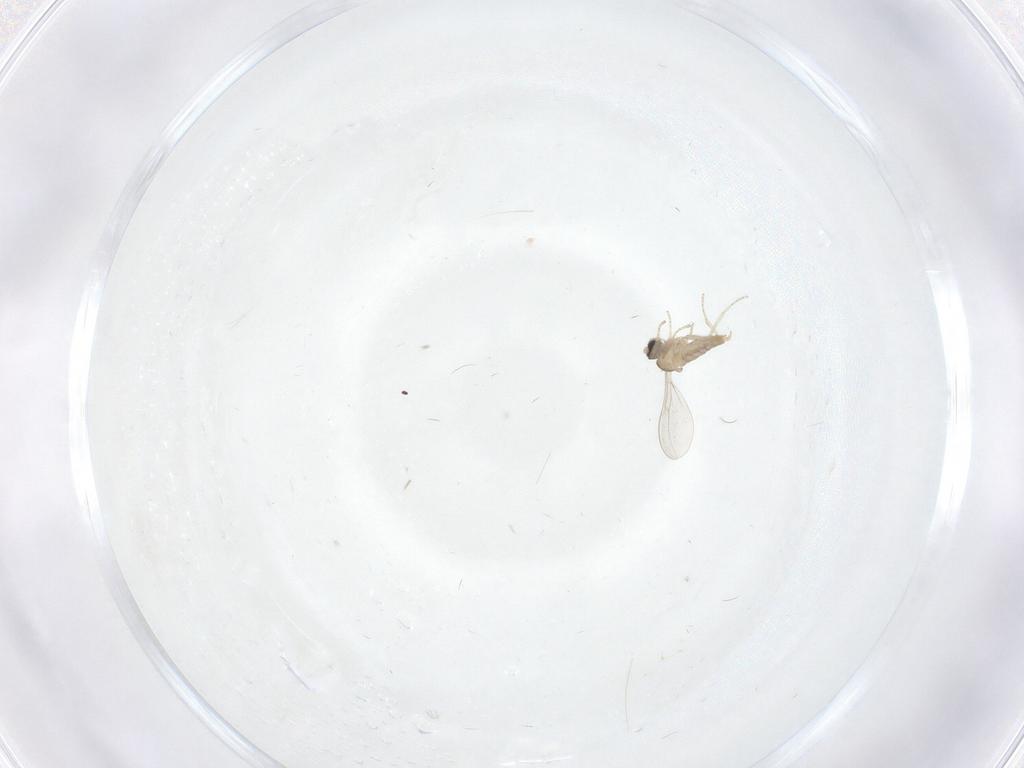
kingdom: Animalia
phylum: Arthropoda
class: Insecta
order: Diptera
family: Cecidomyiidae
